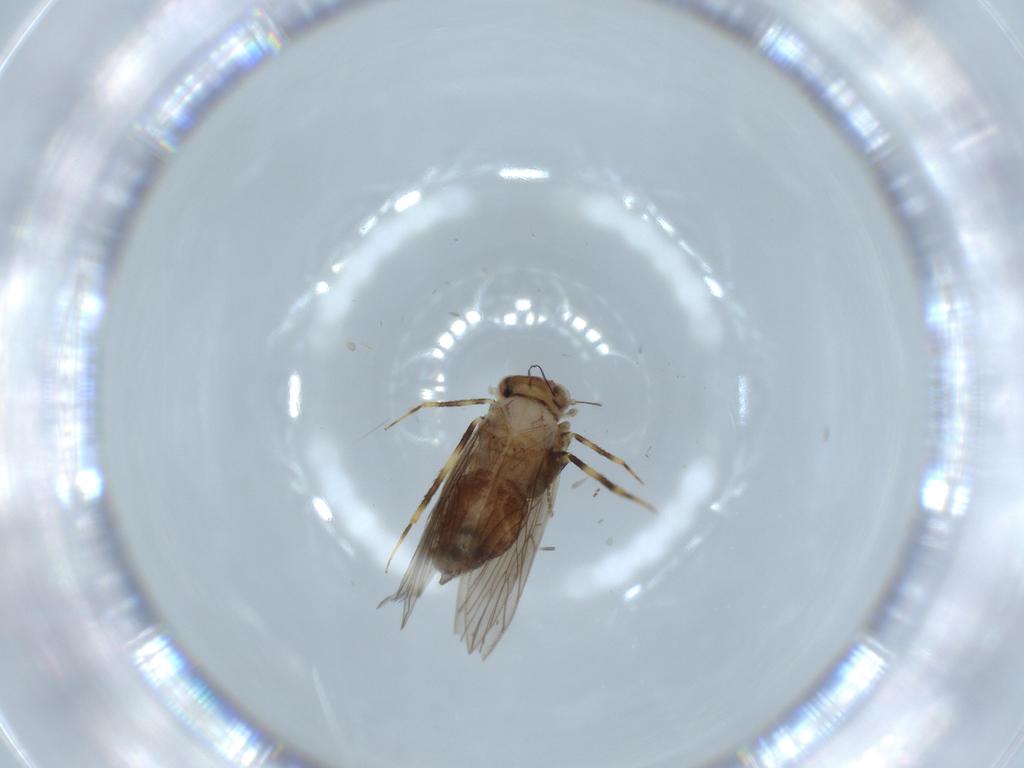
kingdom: Animalia
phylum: Arthropoda
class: Insecta
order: Psocodea
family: Lepidopsocidae
